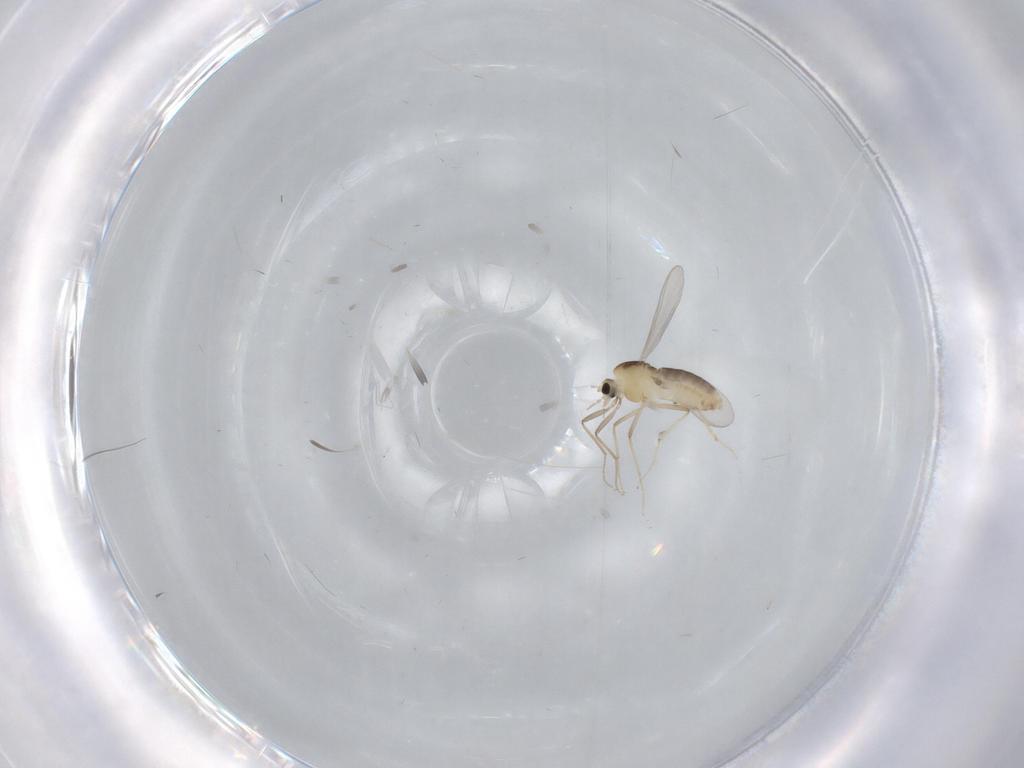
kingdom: Animalia
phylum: Arthropoda
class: Insecta
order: Diptera
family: Chironomidae
